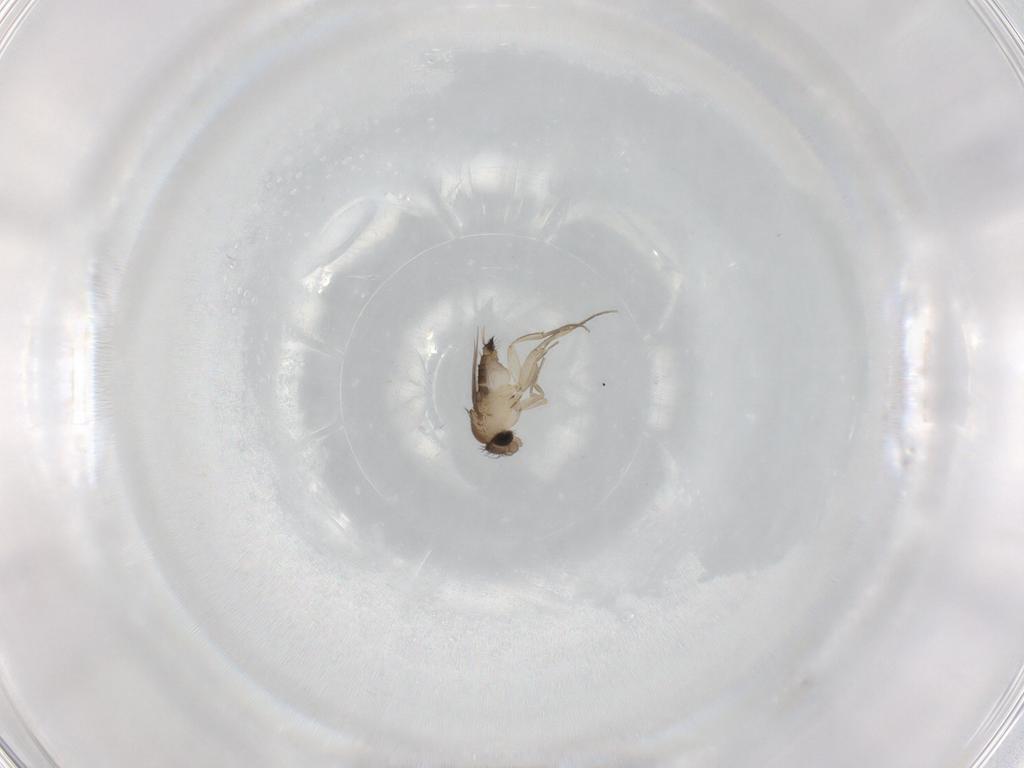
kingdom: Animalia
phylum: Arthropoda
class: Insecta
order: Diptera
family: Phoridae
